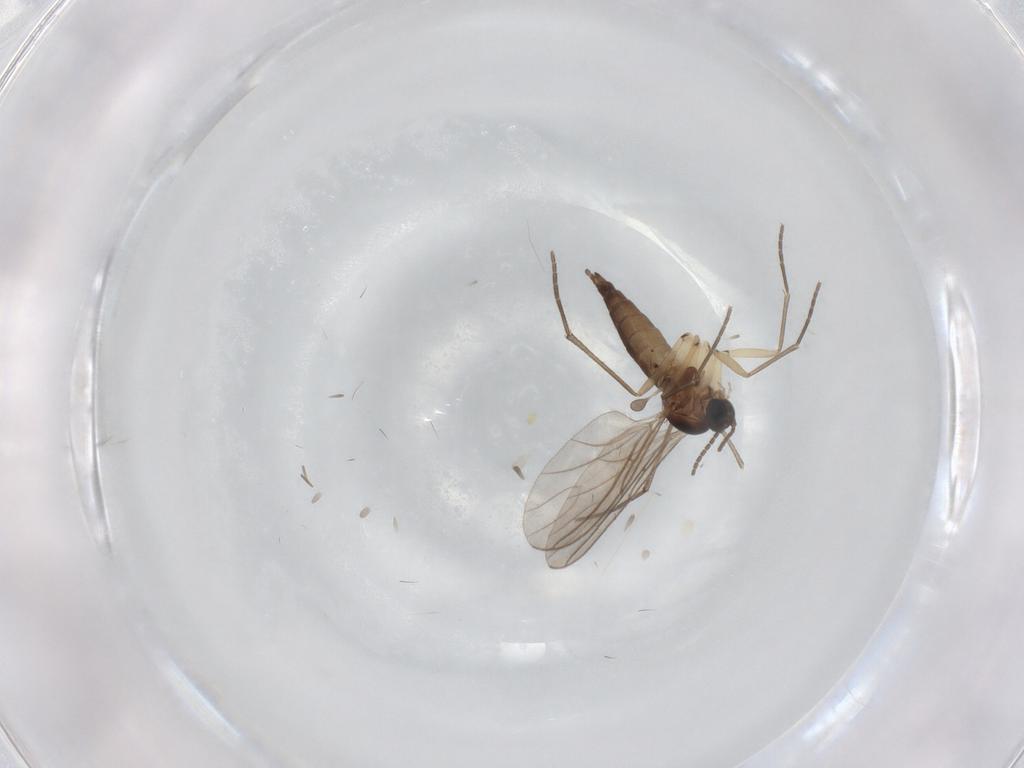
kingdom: Animalia
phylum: Arthropoda
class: Insecta
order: Diptera
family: Sciaridae
